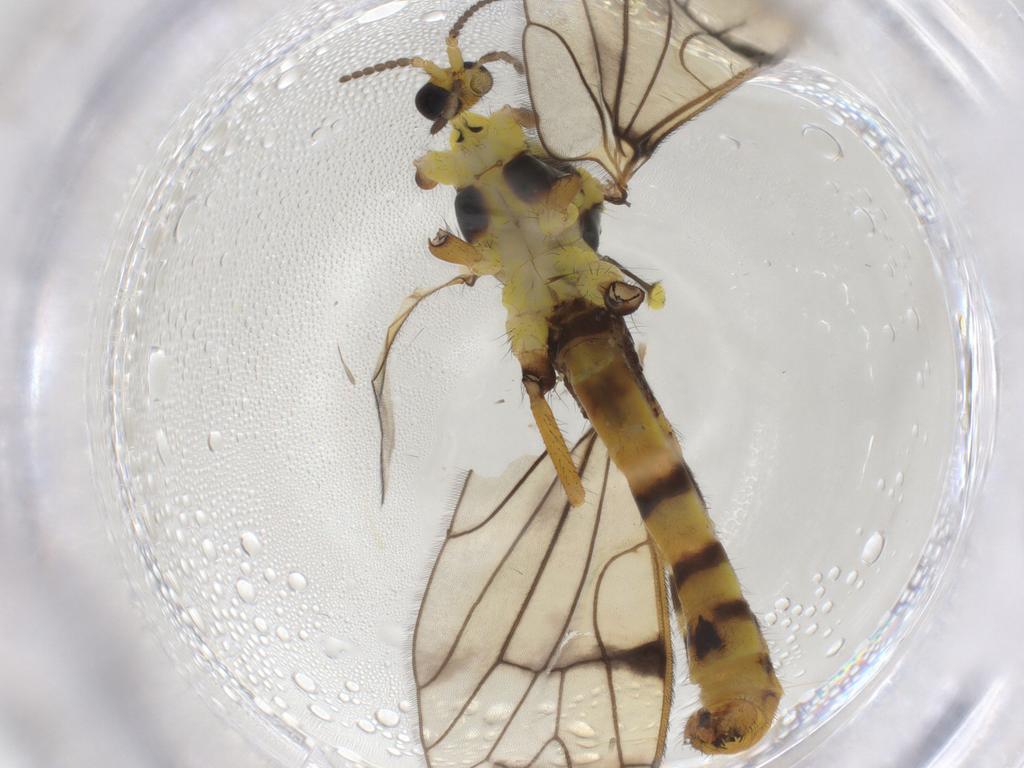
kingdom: Animalia
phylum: Arthropoda
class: Insecta
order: Diptera
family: Limoniidae
